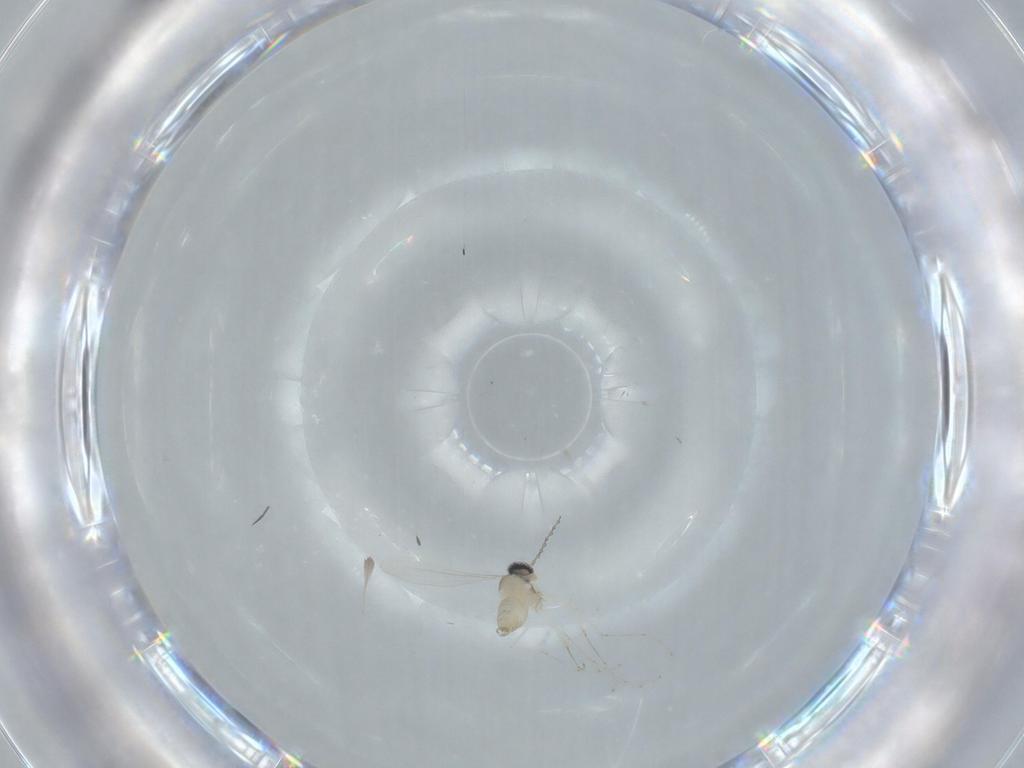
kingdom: Animalia
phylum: Arthropoda
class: Insecta
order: Diptera
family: Cecidomyiidae
